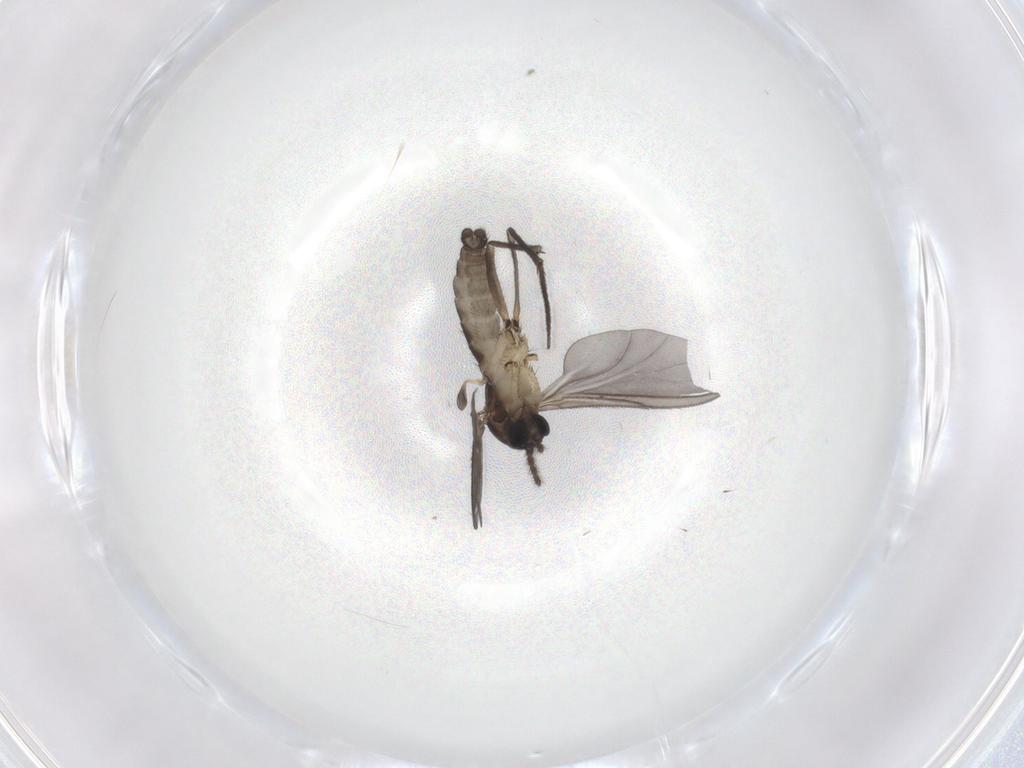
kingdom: Animalia
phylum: Arthropoda
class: Insecta
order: Diptera
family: Sciaridae
